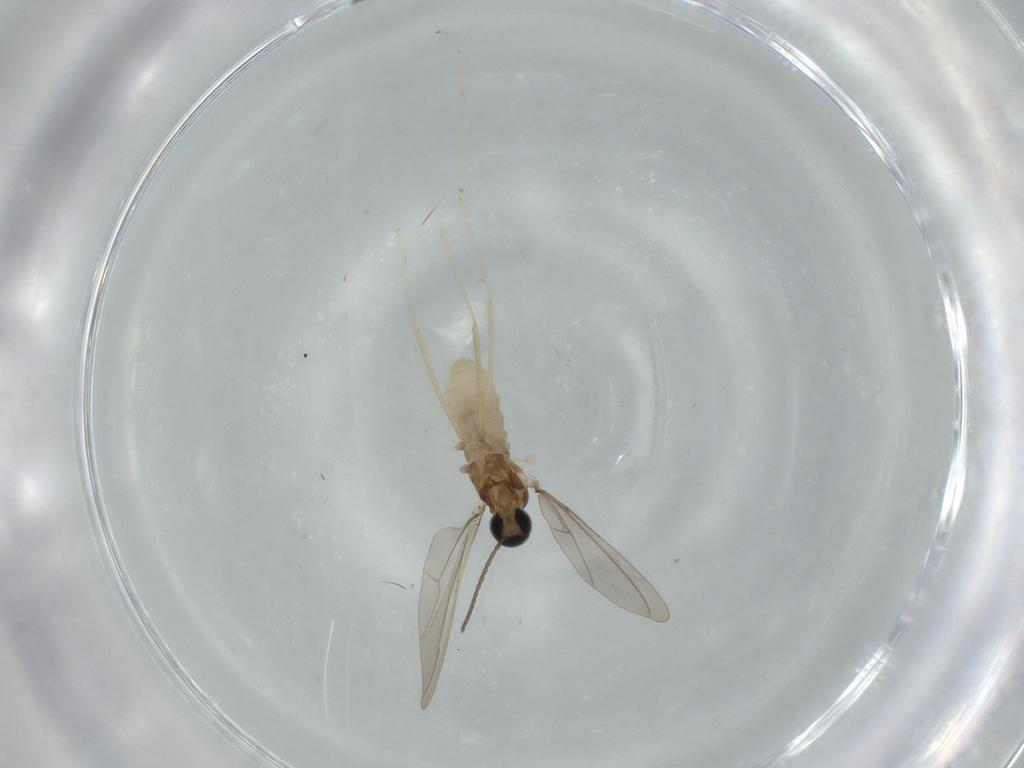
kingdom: Animalia
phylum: Arthropoda
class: Insecta
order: Diptera
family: Cecidomyiidae
